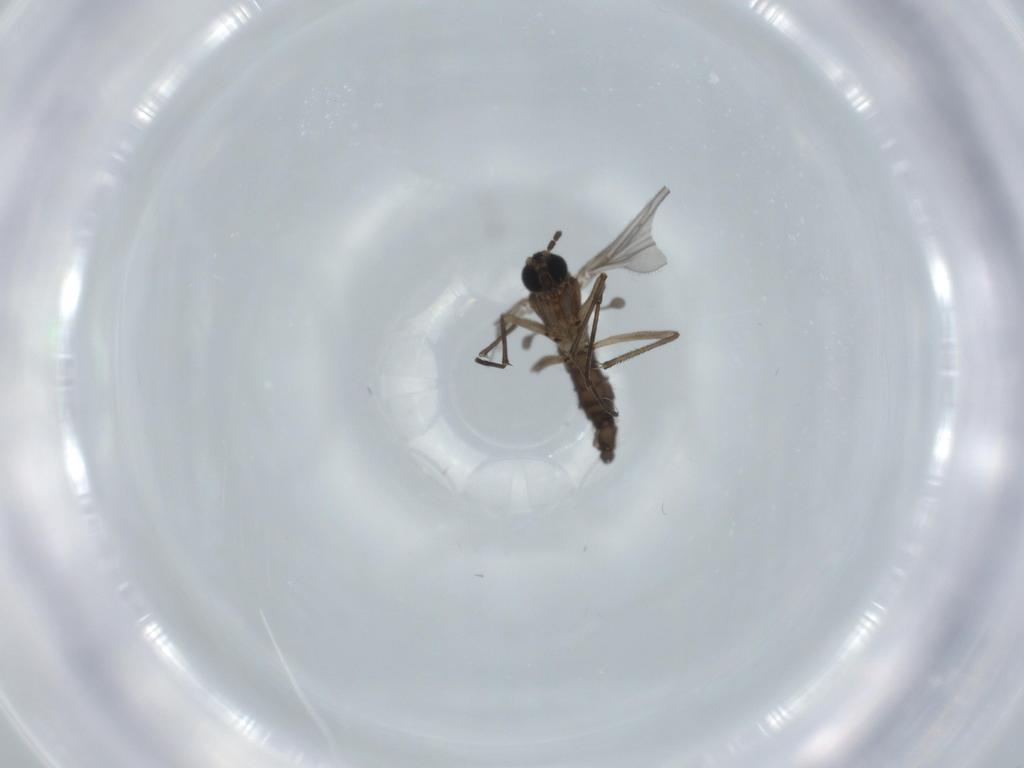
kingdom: Animalia
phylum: Arthropoda
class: Insecta
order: Diptera
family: Sciaridae
